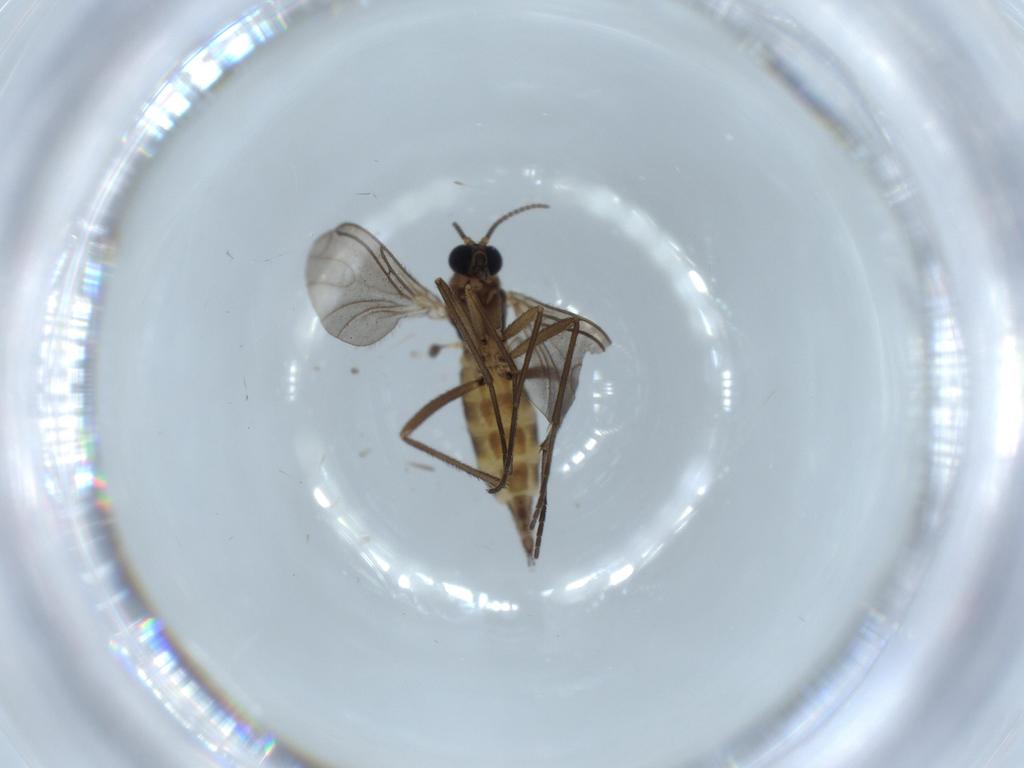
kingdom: Animalia
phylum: Arthropoda
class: Insecta
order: Diptera
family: Sciaridae
